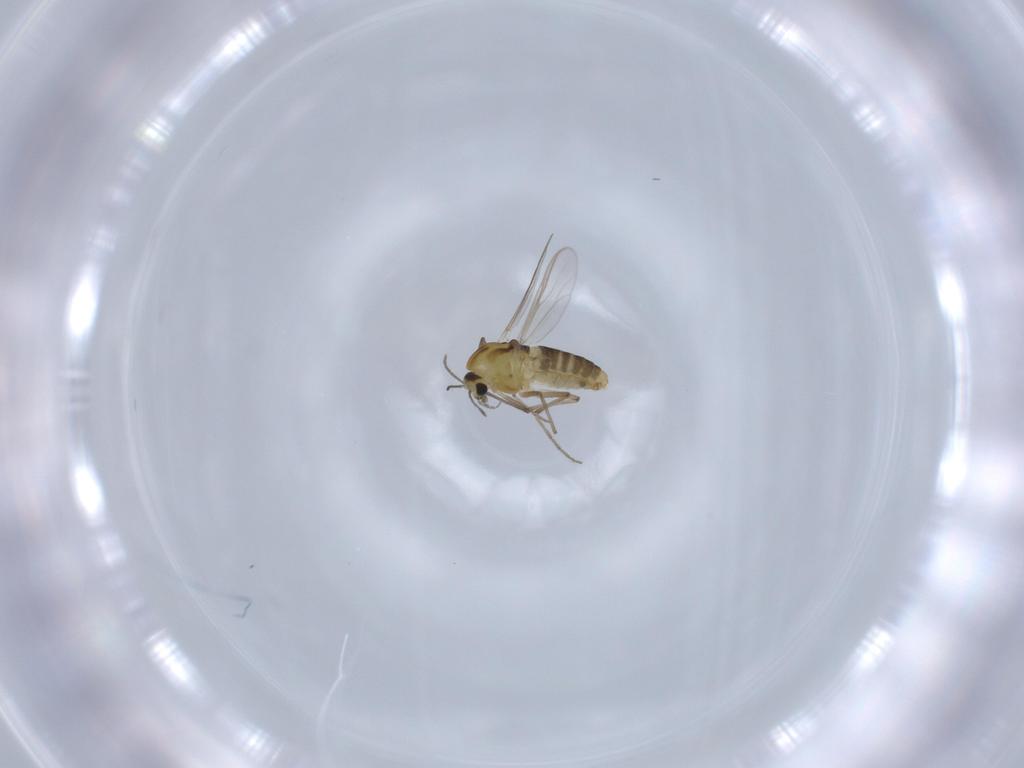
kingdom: Animalia
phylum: Arthropoda
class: Insecta
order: Diptera
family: Chironomidae
